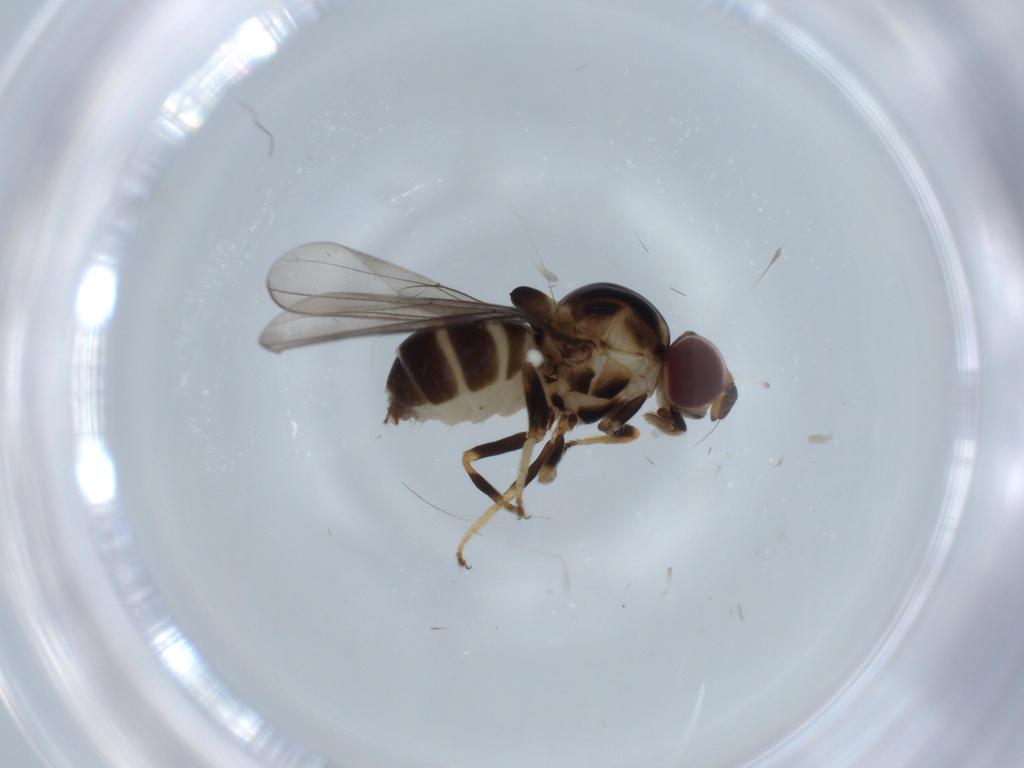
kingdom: Animalia
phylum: Arthropoda
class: Insecta
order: Diptera
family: Chloropidae
